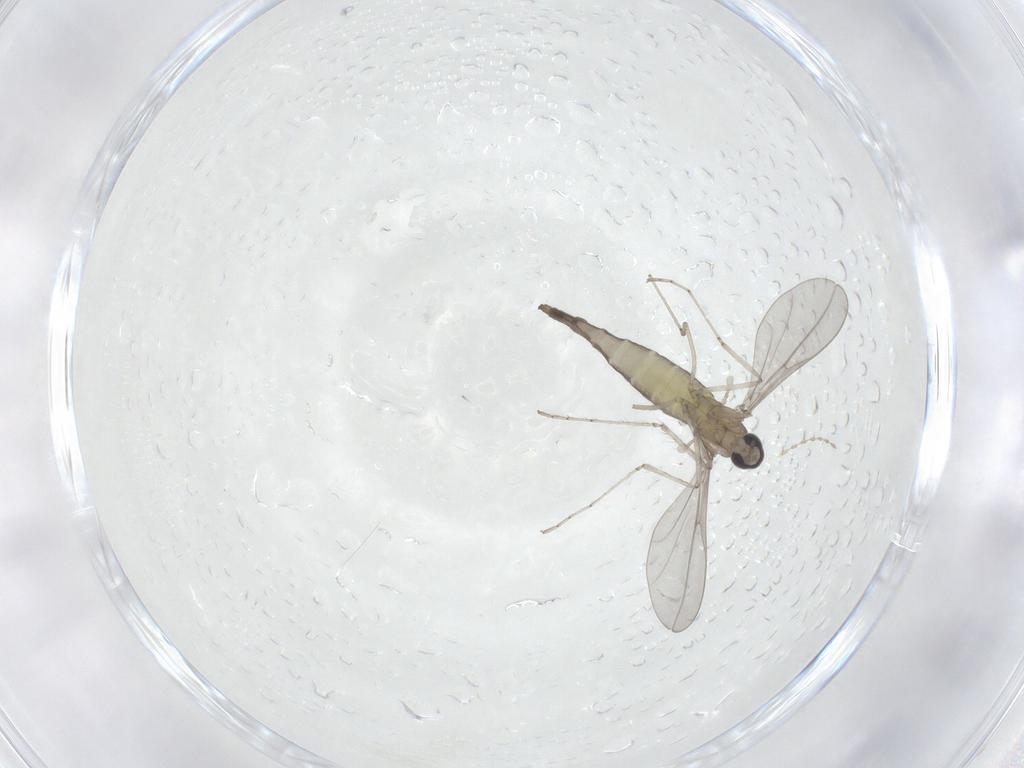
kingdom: Animalia
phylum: Arthropoda
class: Insecta
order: Diptera
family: Cecidomyiidae
